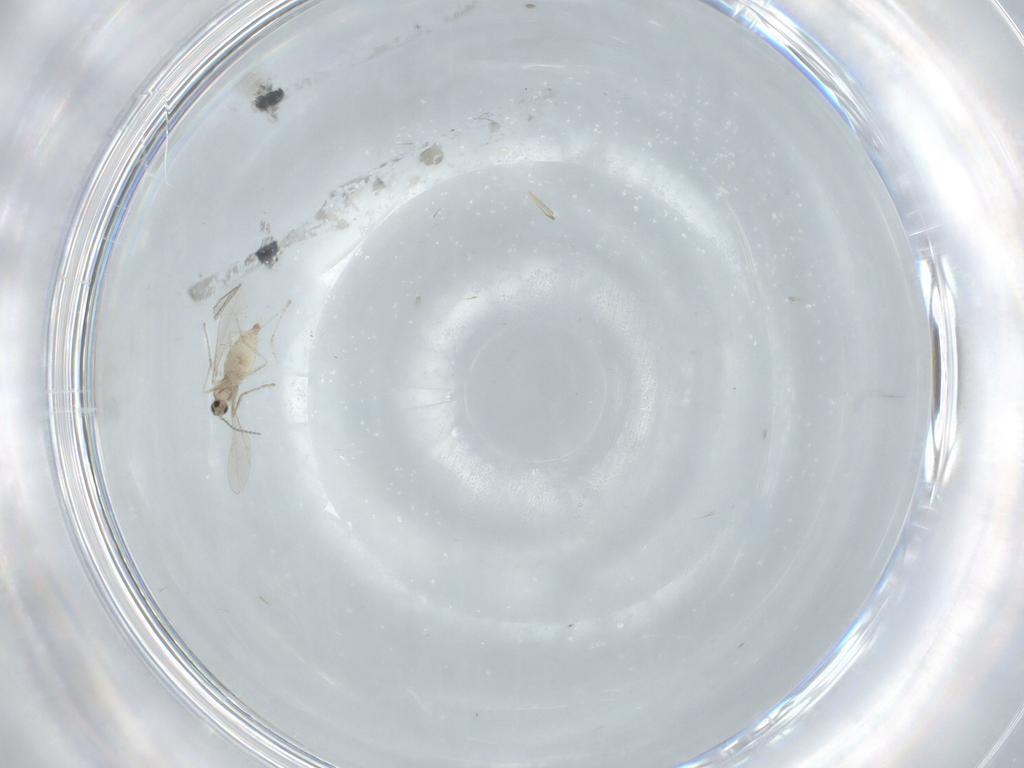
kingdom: Animalia
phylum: Arthropoda
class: Insecta
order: Diptera
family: Cecidomyiidae
